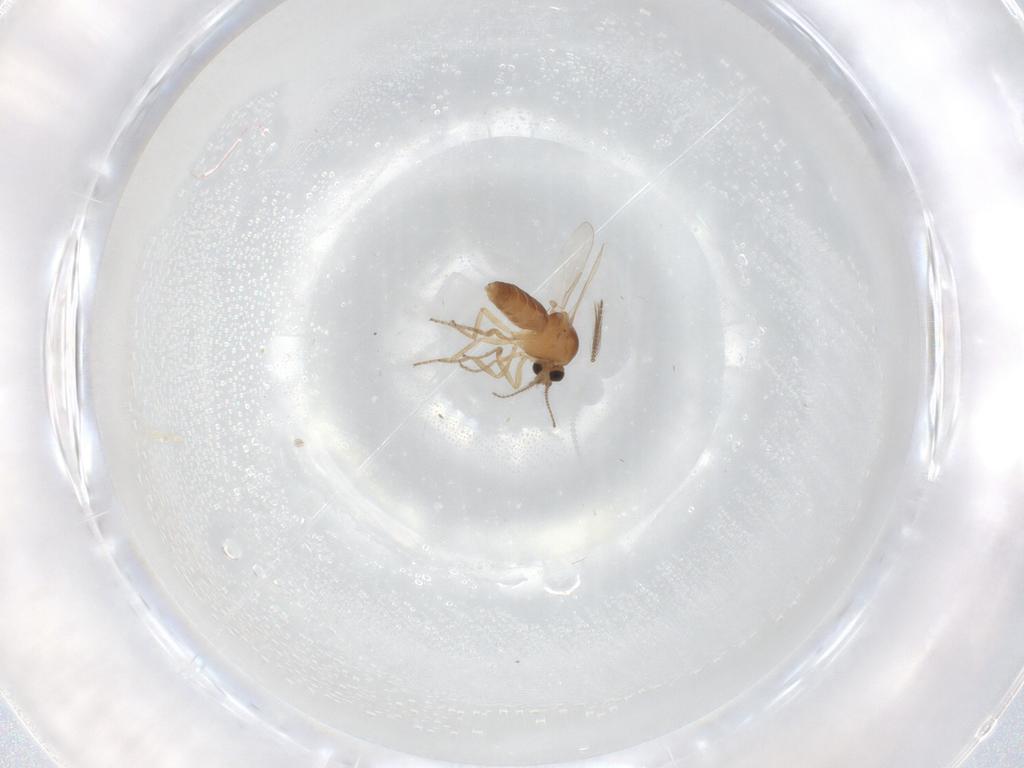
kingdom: Animalia
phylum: Arthropoda
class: Insecta
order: Diptera
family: Ceratopogonidae
